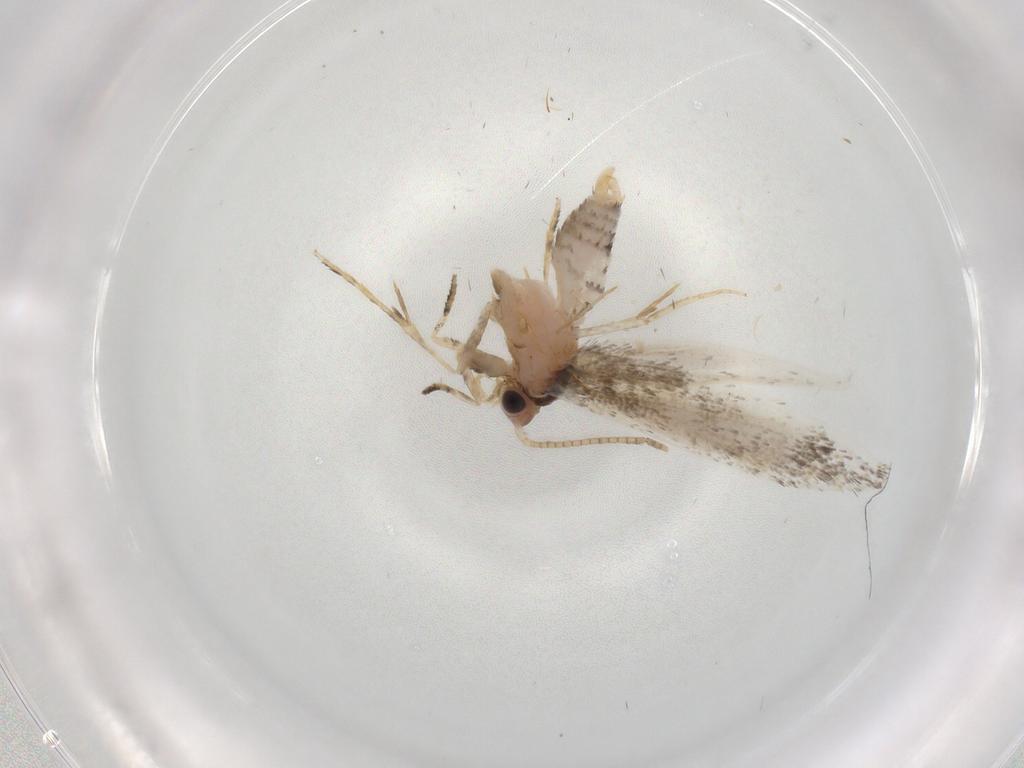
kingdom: Animalia
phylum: Arthropoda
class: Insecta
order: Lepidoptera
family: Tineidae
